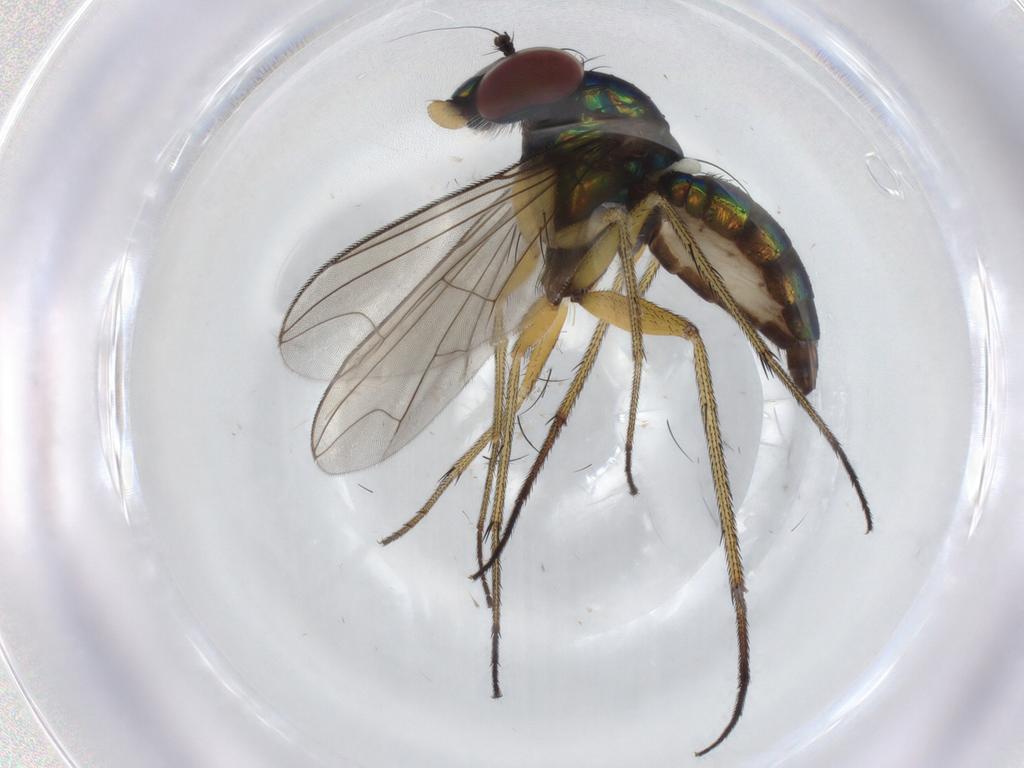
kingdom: Animalia
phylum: Arthropoda
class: Insecta
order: Diptera
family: Dolichopodidae
